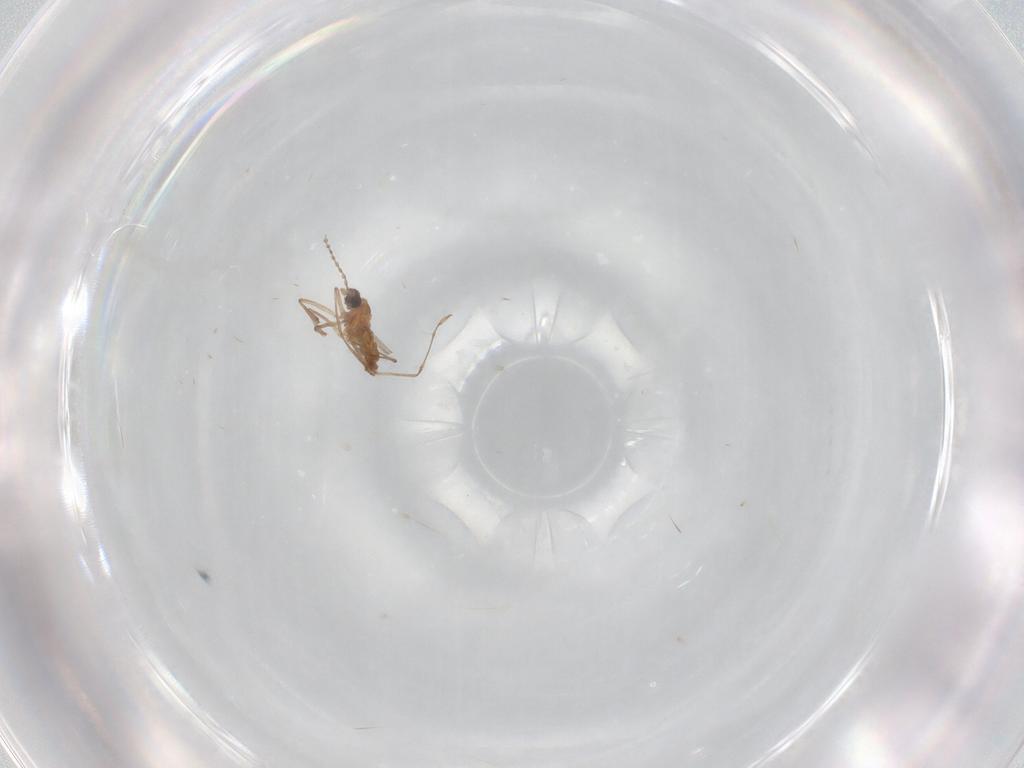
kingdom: Animalia
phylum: Arthropoda
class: Insecta
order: Diptera
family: Cecidomyiidae
